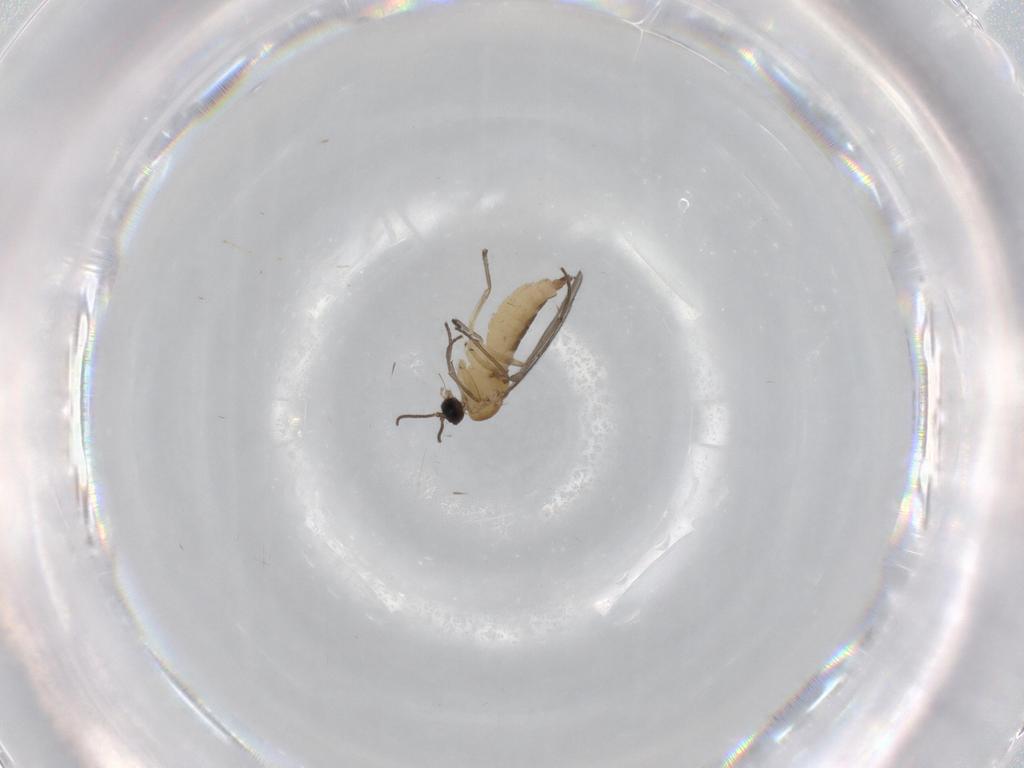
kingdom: Animalia
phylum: Arthropoda
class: Insecta
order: Diptera
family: Sciaridae
